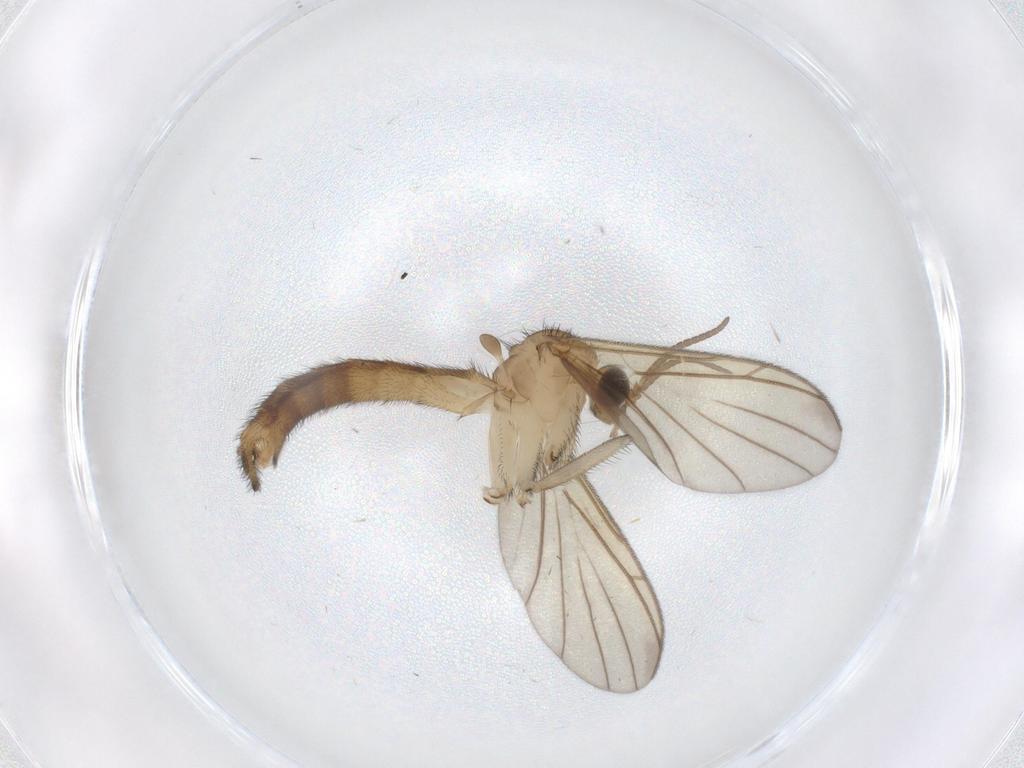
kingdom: Animalia
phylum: Arthropoda
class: Insecta
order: Diptera
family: Keroplatidae
